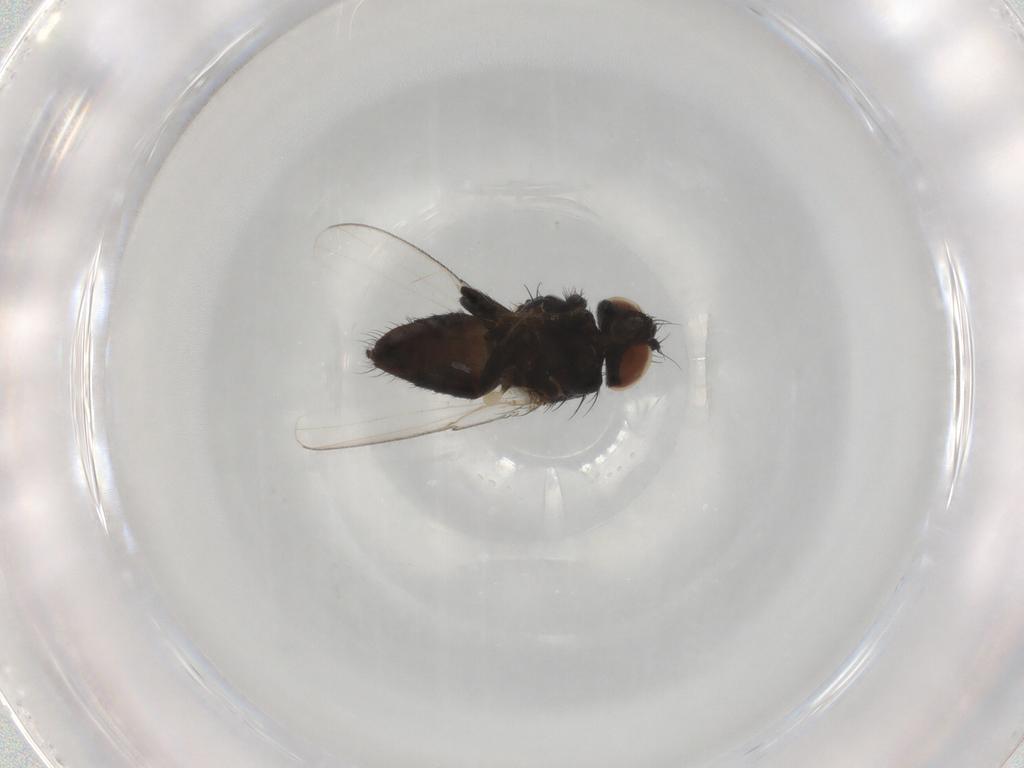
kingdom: Animalia
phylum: Arthropoda
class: Insecta
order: Diptera
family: Milichiidae
